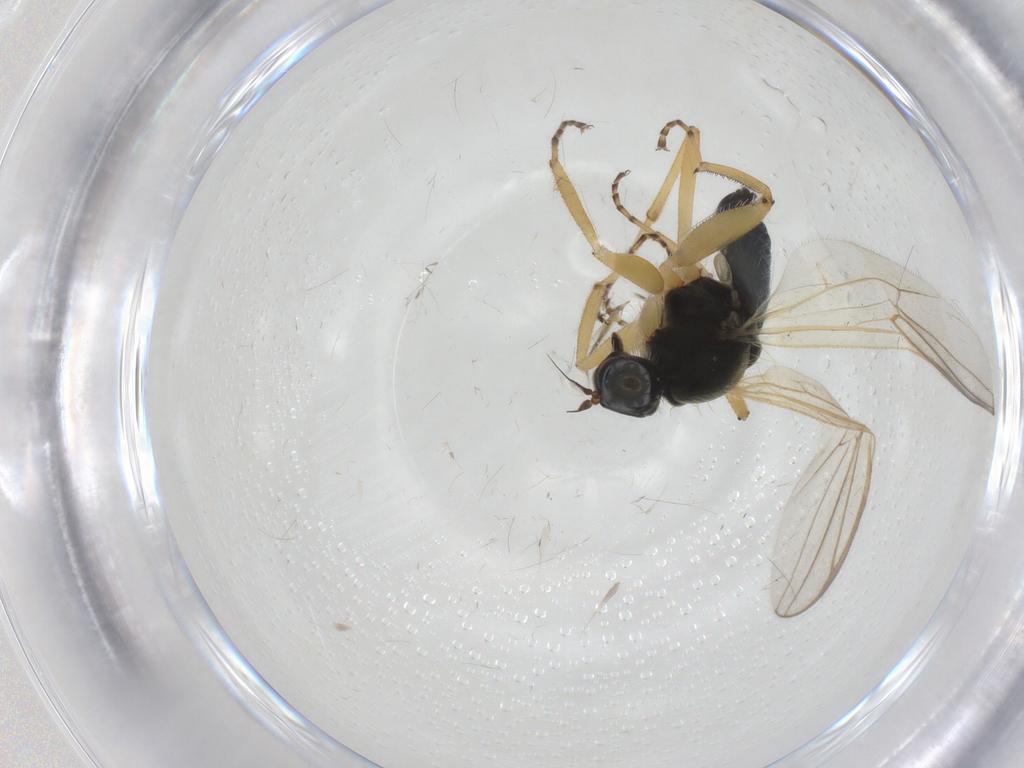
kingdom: Animalia
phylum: Arthropoda
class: Insecta
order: Diptera
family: Hybotidae
